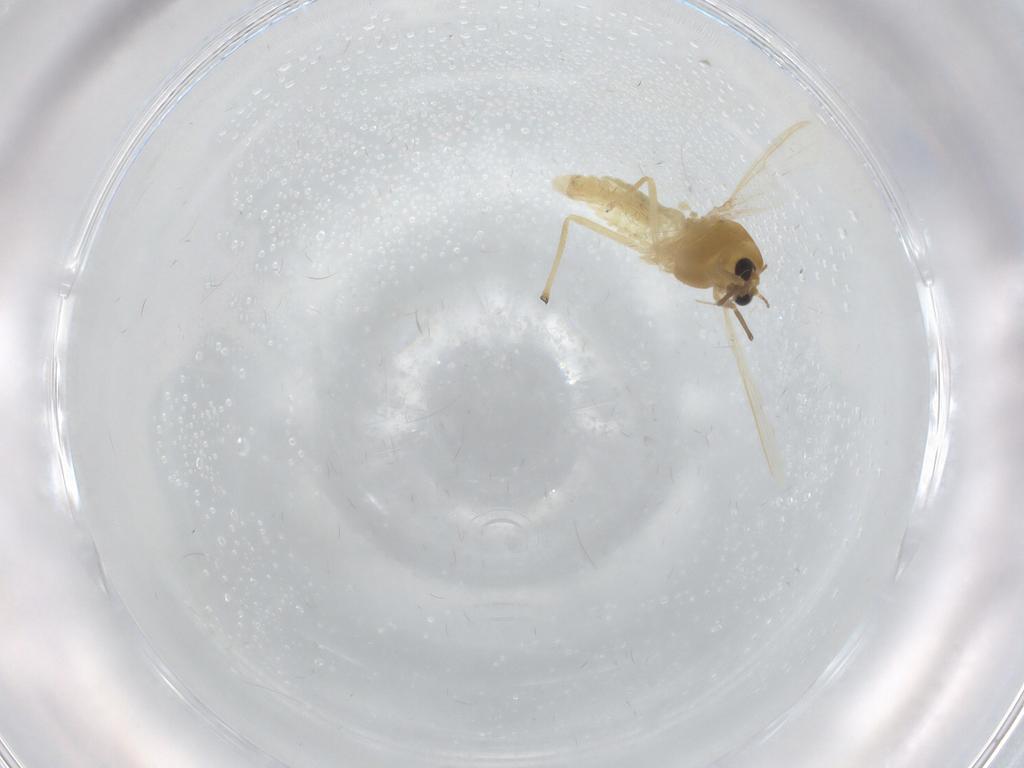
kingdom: Animalia
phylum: Arthropoda
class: Insecta
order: Diptera
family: Chironomidae
